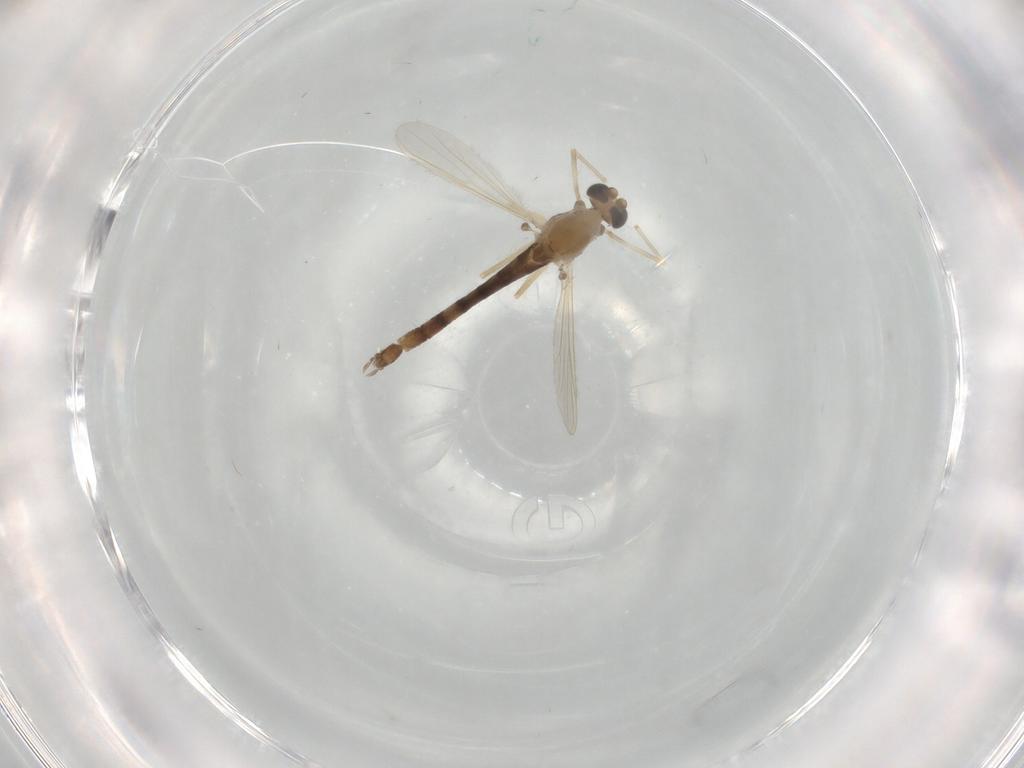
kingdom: Animalia
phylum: Arthropoda
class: Insecta
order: Diptera
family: Chironomidae
